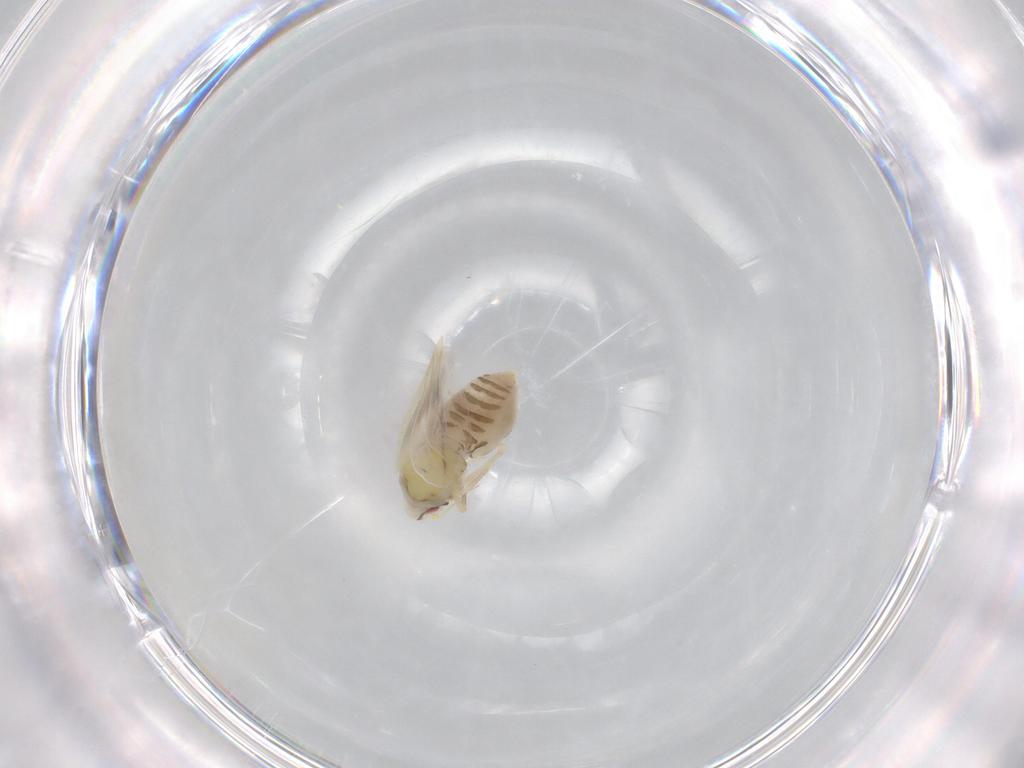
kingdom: Animalia
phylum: Arthropoda
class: Insecta
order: Hemiptera
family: Aleyrodidae
